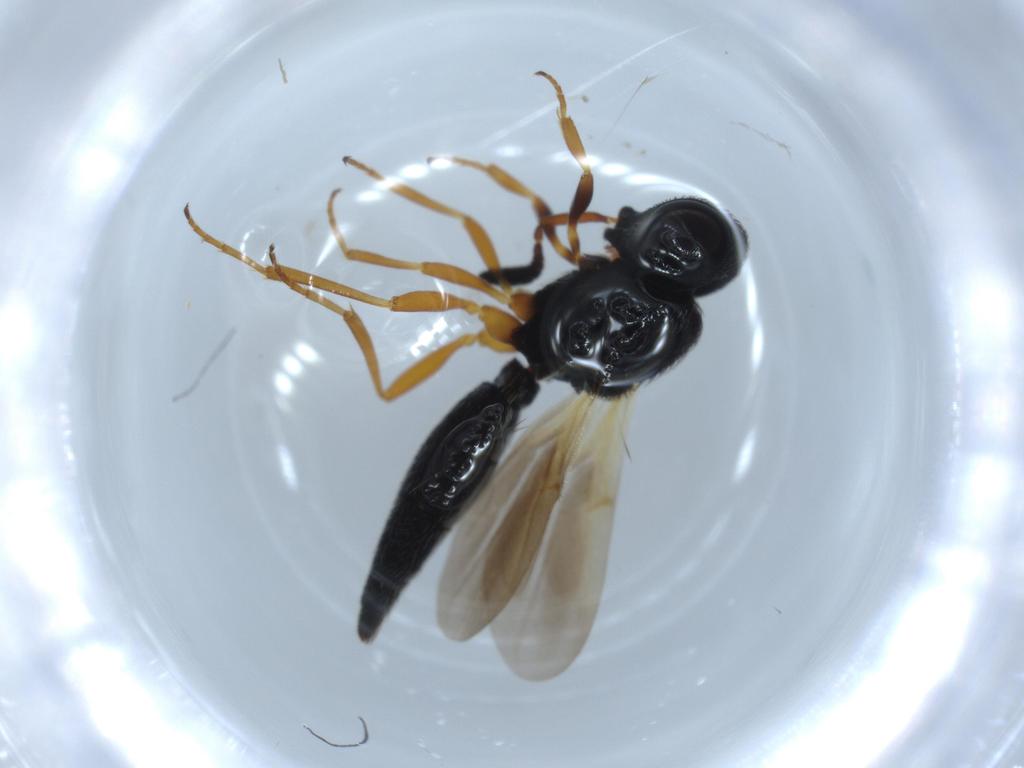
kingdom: Animalia
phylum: Arthropoda
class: Insecta
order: Hymenoptera
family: Scelionidae
